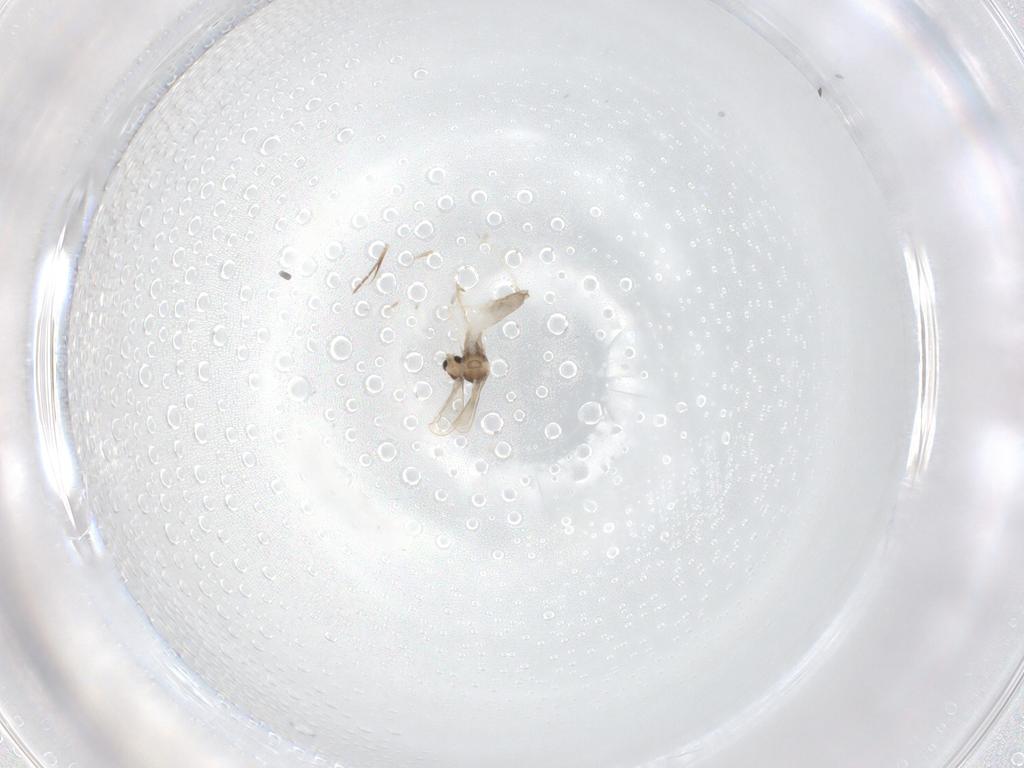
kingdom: Animalia
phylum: Arthropoda
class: Insecta
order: Diptera
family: Cecidomyiidae
